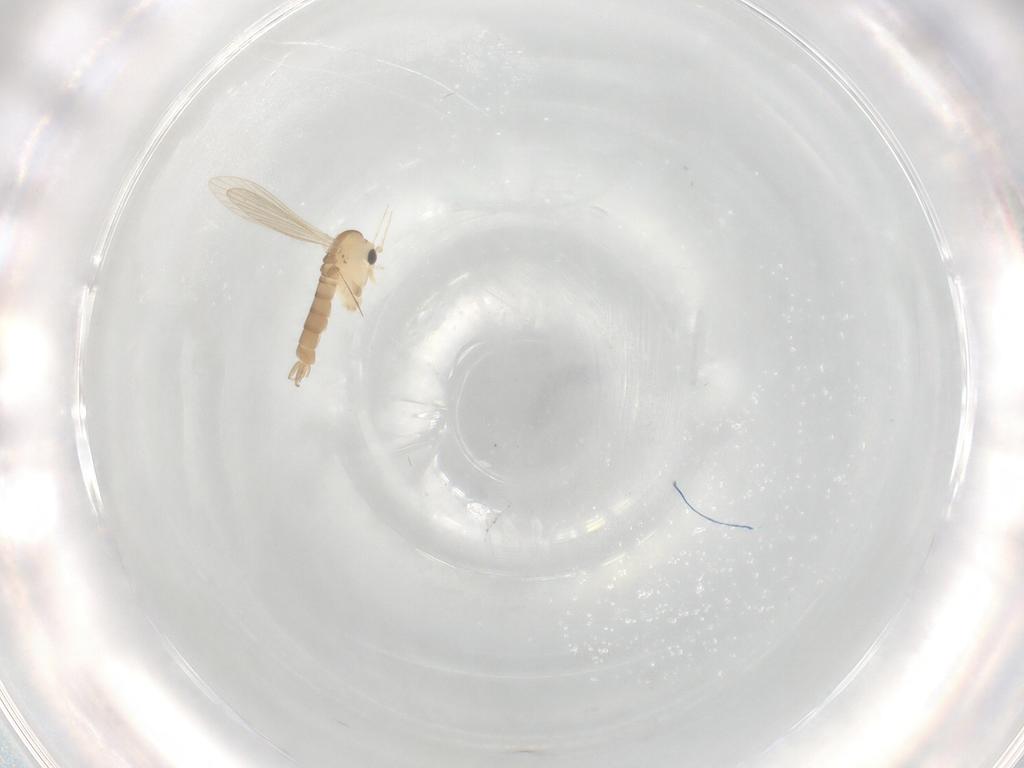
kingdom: Animalia
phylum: Arthropoda
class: Insecta
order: Diptera
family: Psychodidae
